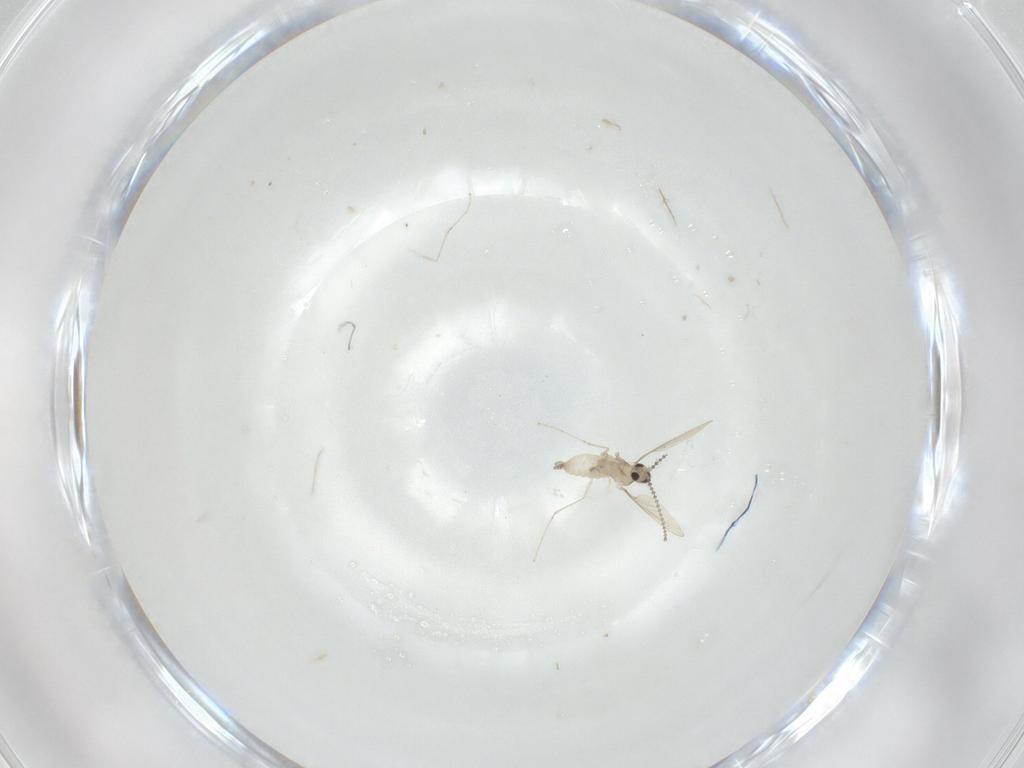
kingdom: Animalia
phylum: Arthropoda
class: Insecta
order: Diptera
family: Cecidomyiidae
